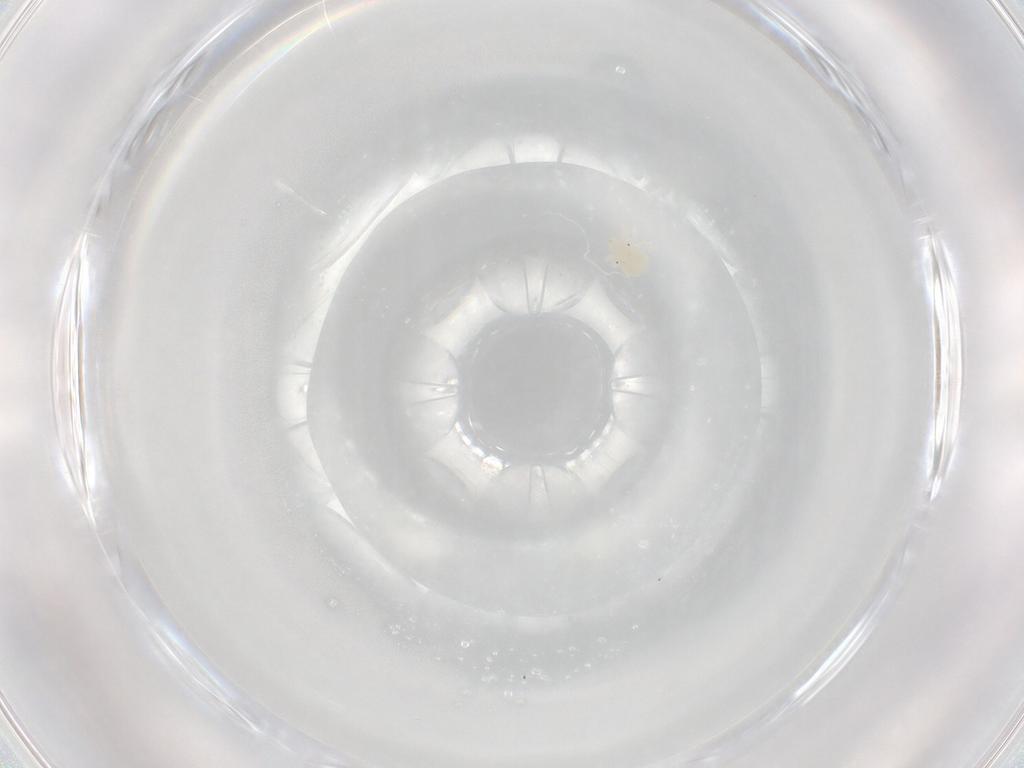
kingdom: Animalia
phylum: Arthropoda
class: Arachnida
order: Trombidiformes
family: Anystidae
